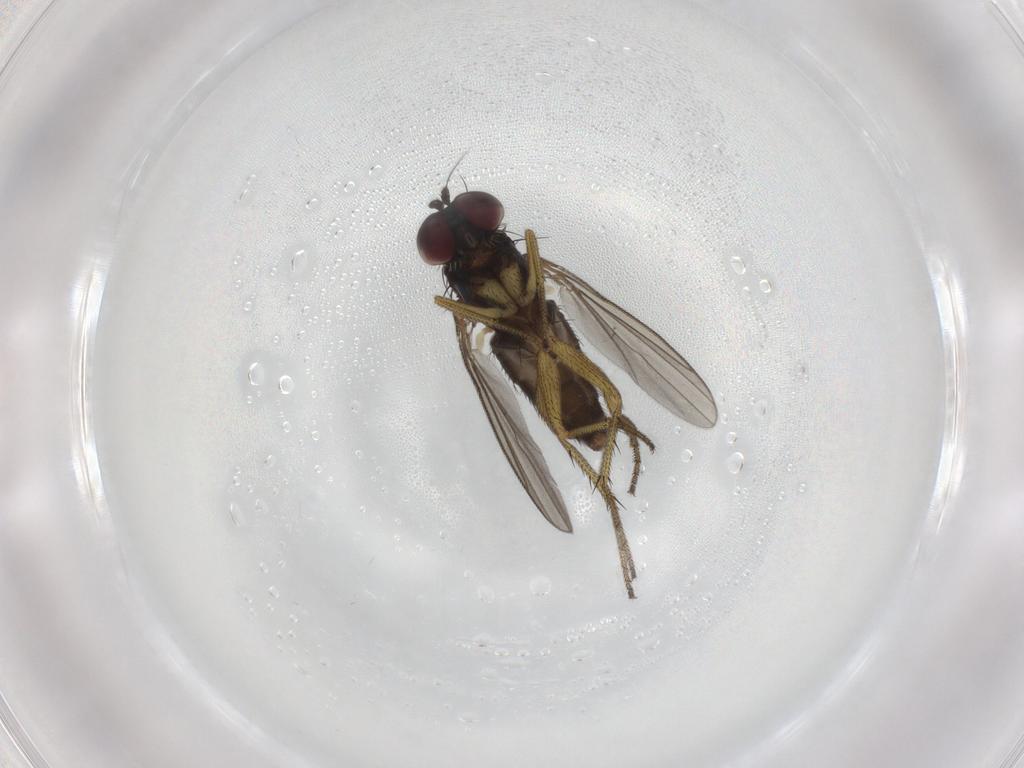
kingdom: Animalia
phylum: Arthropoda
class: Insecta
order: Diptera
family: Dolichopodidae
